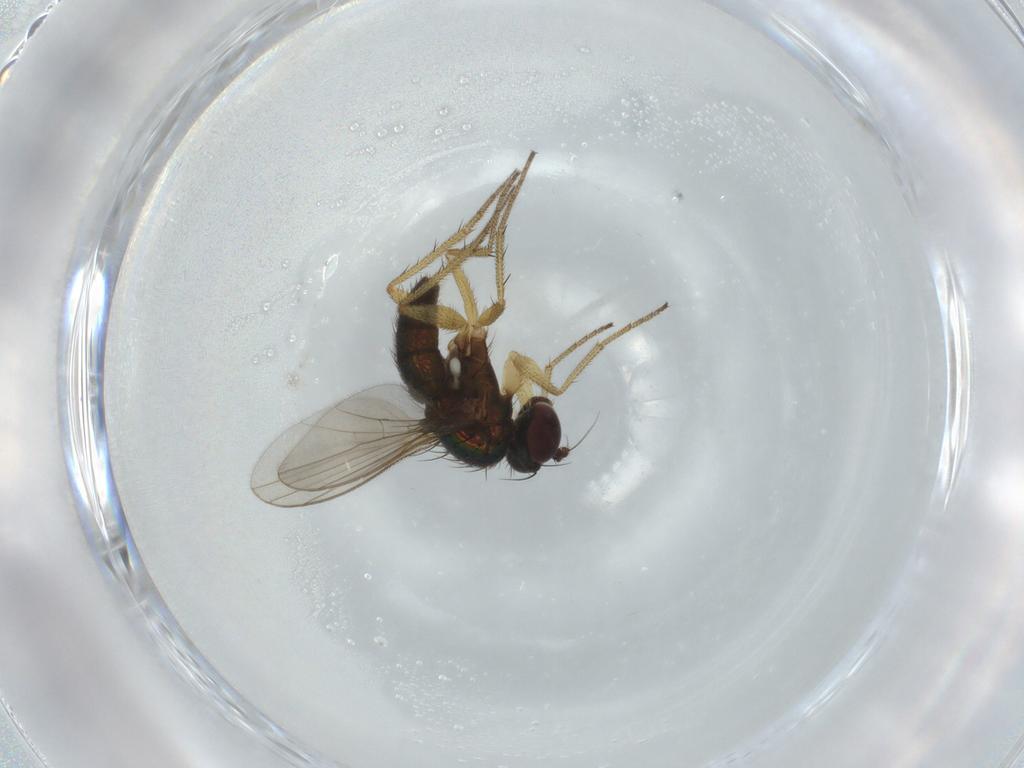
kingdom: Animalia
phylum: Arthropoda
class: Insecta
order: Diptera
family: Dolichopodidae
